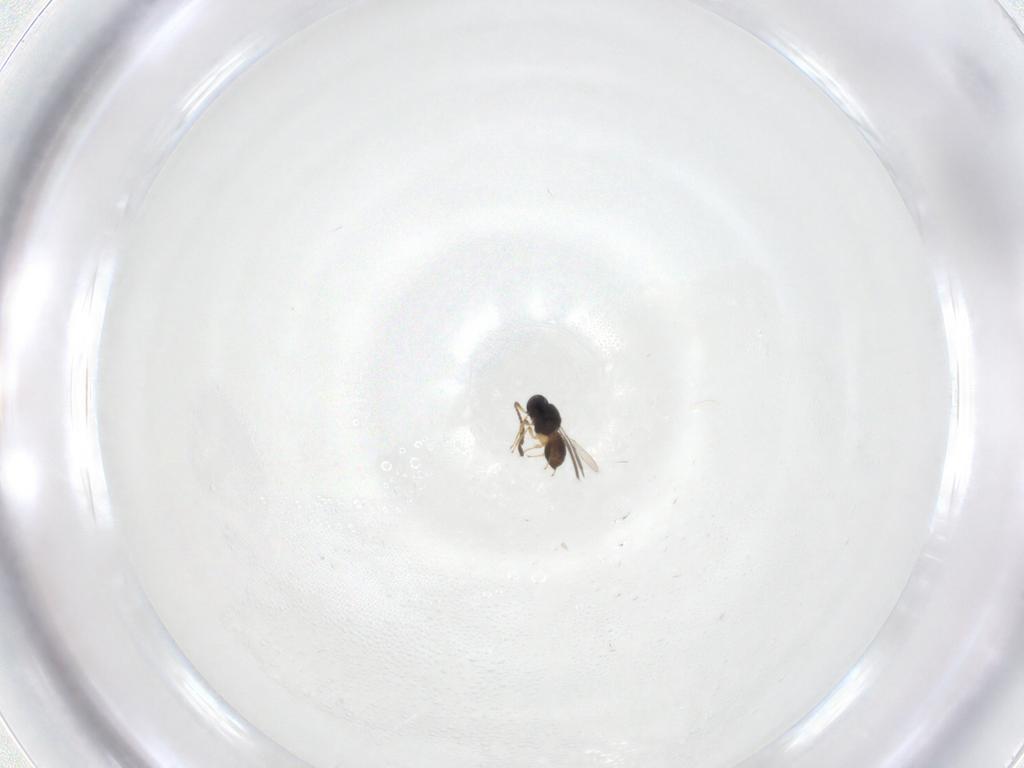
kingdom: Animalia
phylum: Arthropoda
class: Insecta
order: Hymenoptera
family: Scelionidae
